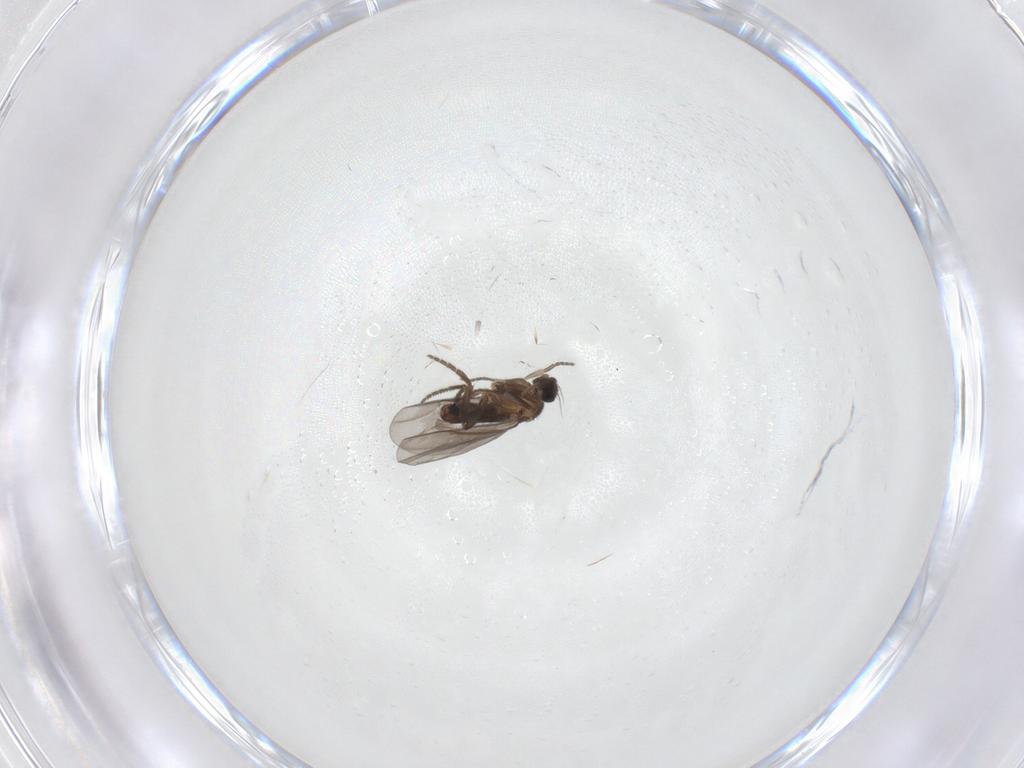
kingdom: Animalia
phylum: Arthropoda
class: Insecta
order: Diptera
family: Phoridae
